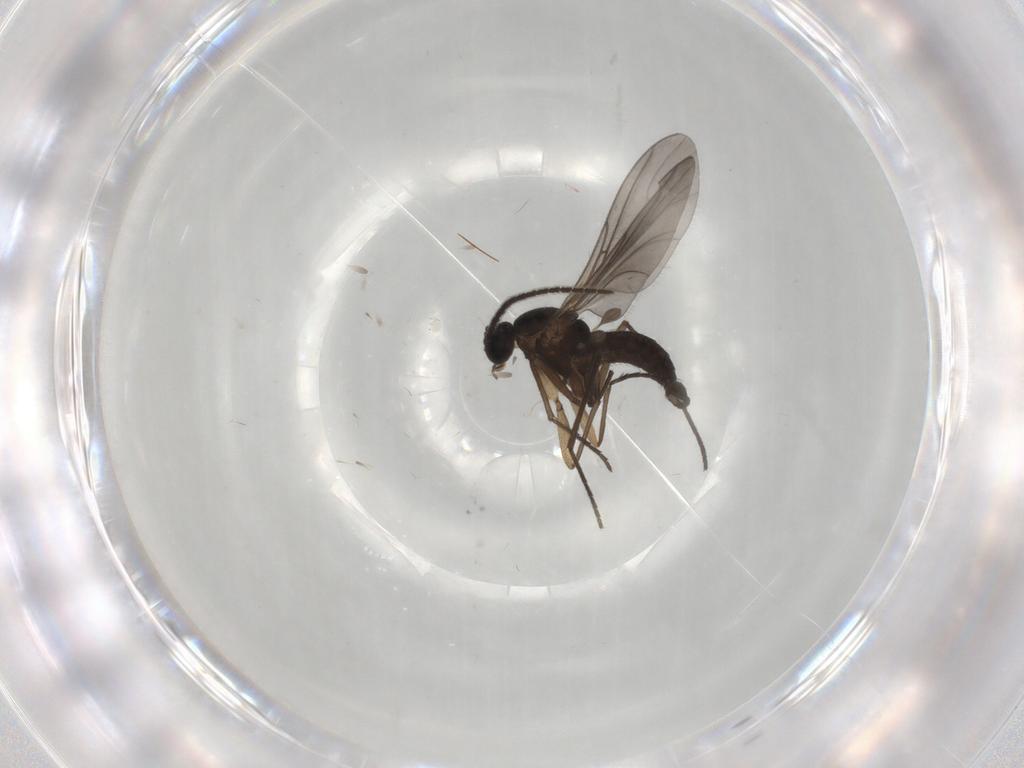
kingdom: Animalia
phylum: Arthropoda
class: Insecta
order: Diptera
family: Sciaridae
